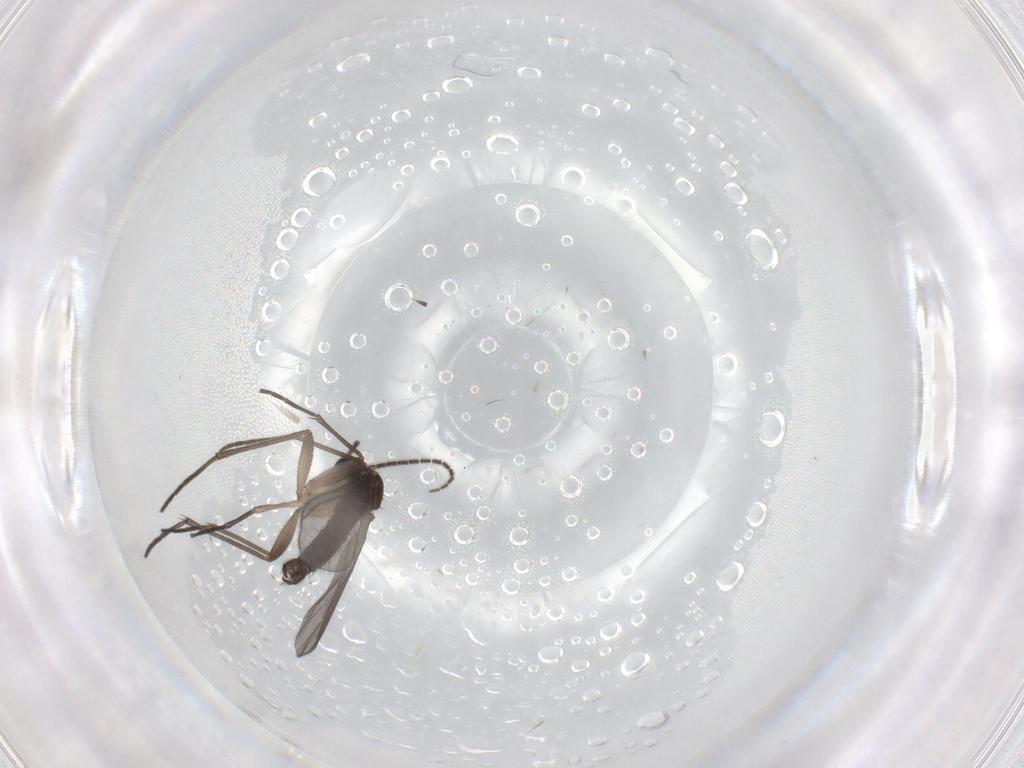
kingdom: Animalia
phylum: Arthropoda
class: Insecta
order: Diptera
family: Sciaridae
